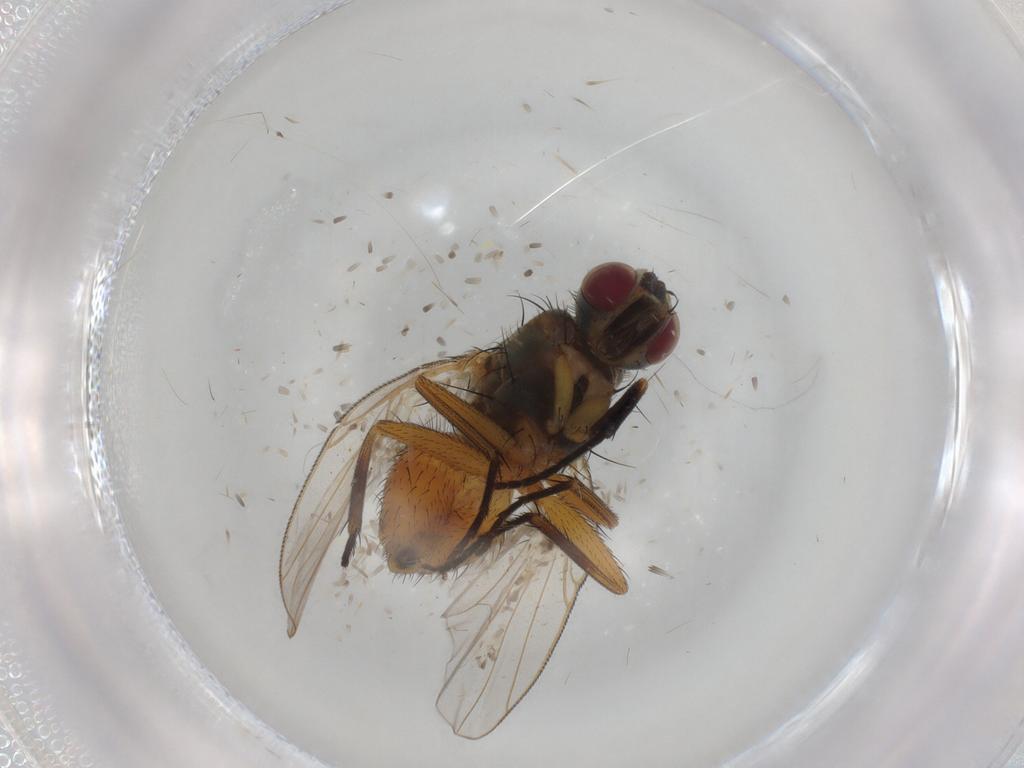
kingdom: Animalia
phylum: Arthropoda
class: Insecta
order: Diptera
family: Muscidae
